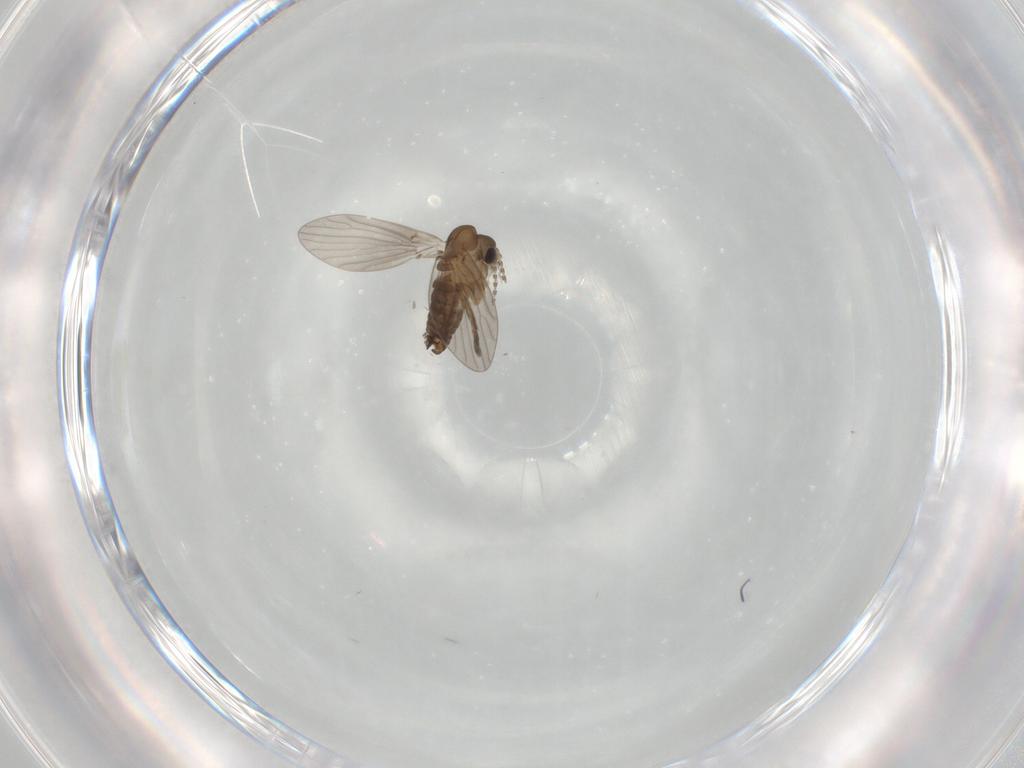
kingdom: Animalia
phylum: Arthropoda
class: Insecta
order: Diptera
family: Psychodidae
